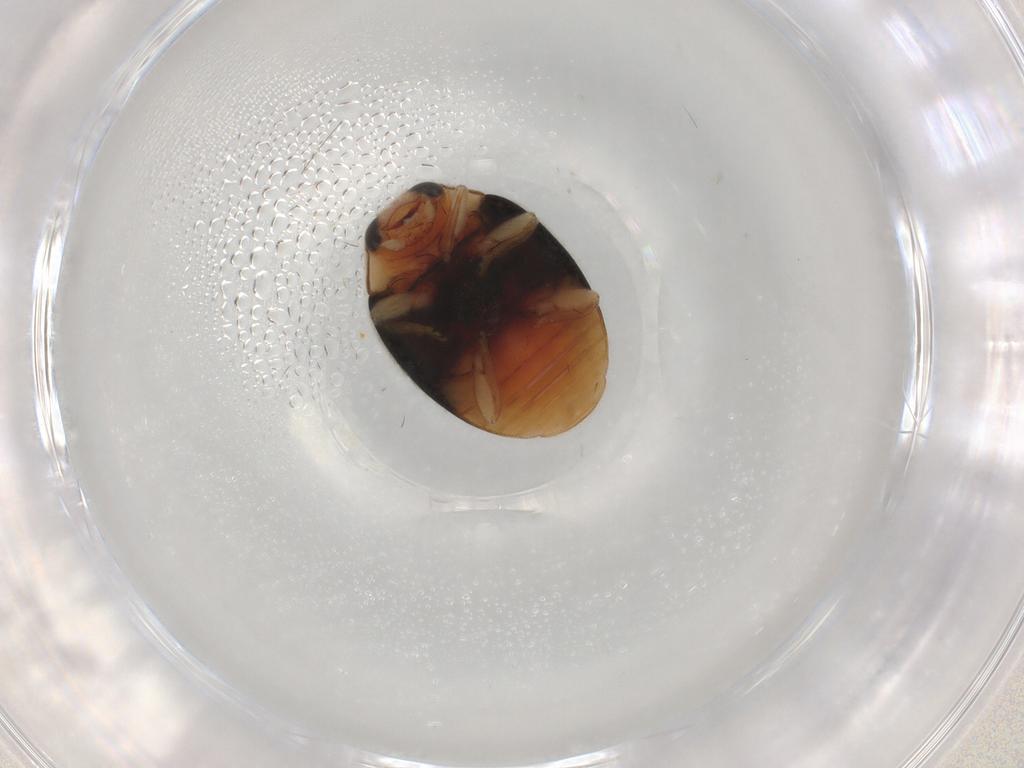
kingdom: Animalia
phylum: Arthropoda
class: Insecta
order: Coleoptera
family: Coccinellidae
